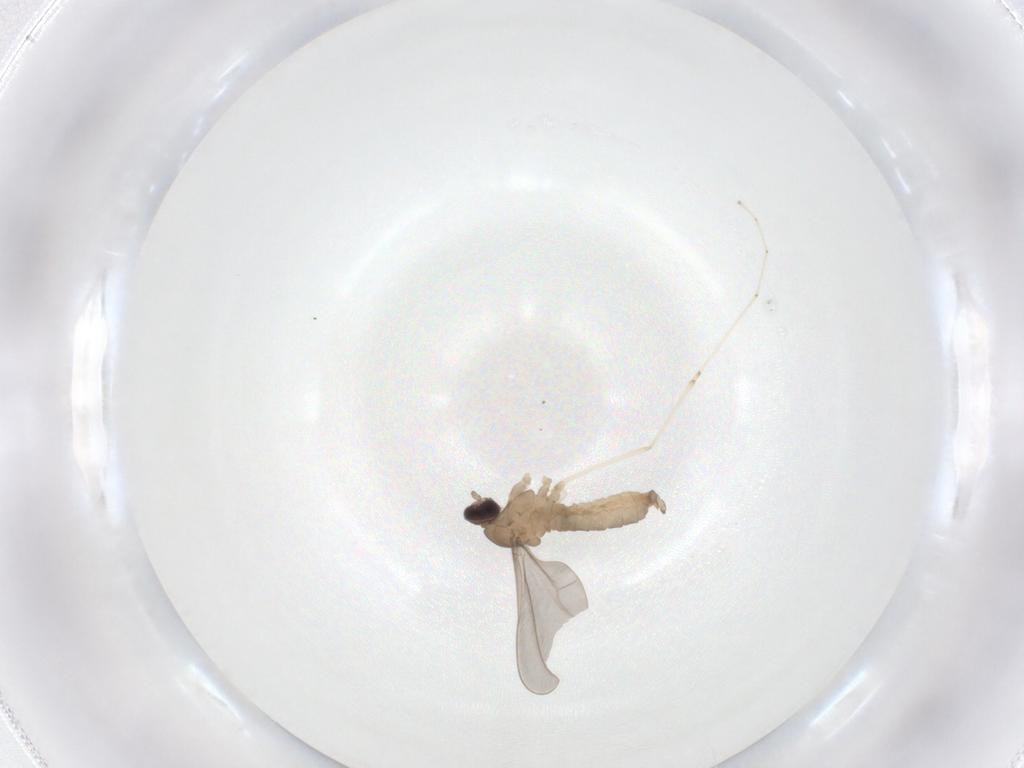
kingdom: Animalia
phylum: Arthropoda
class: Insecta
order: Diptera
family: Cecidomyiidae
